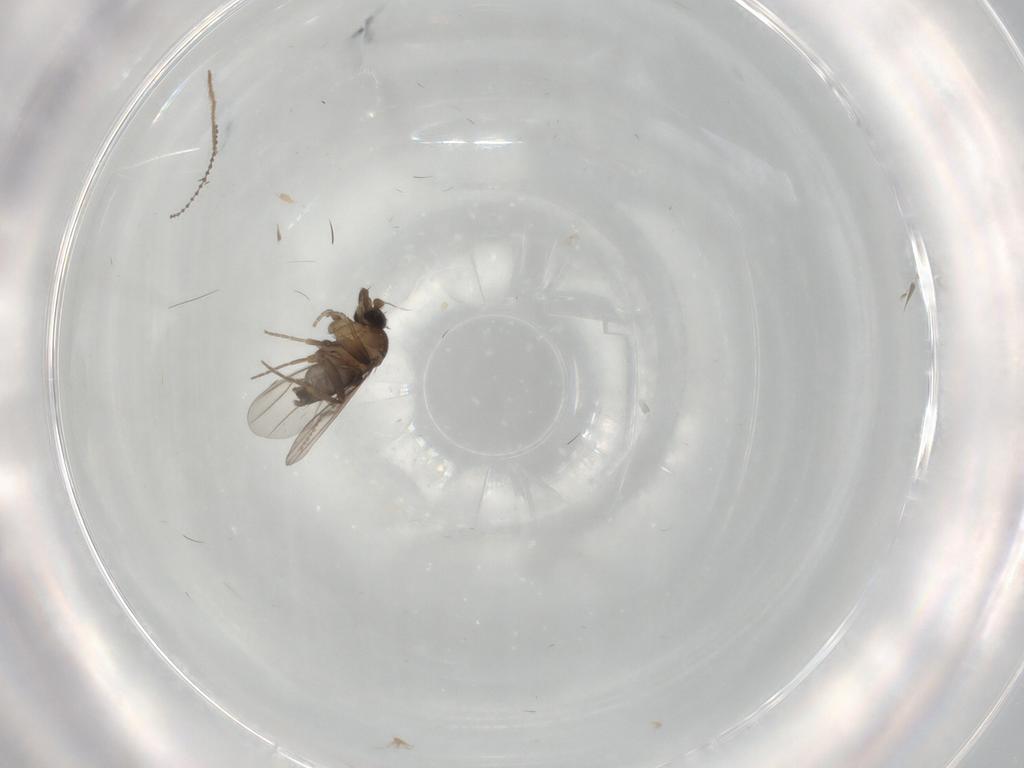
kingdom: Animalia
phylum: Arthropoda
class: Insecta
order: Diptera
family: Cecidomyiidae
